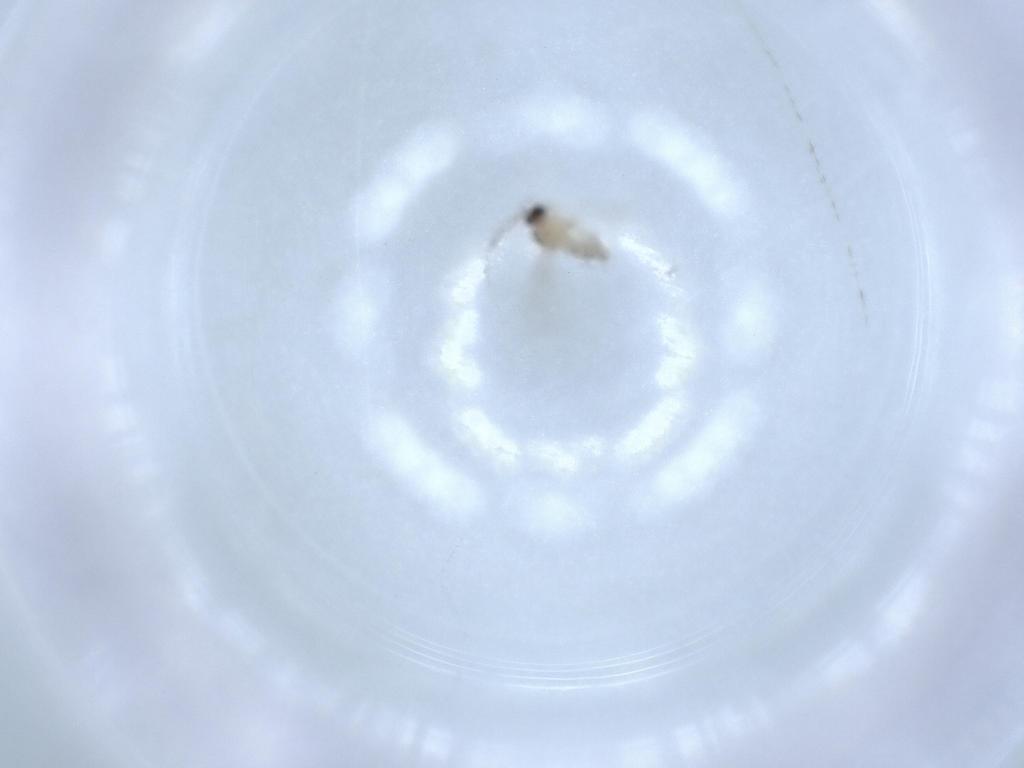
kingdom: Animalia
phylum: Arthropoda
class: Insecta
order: Diptera
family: Cecidomyiidae
